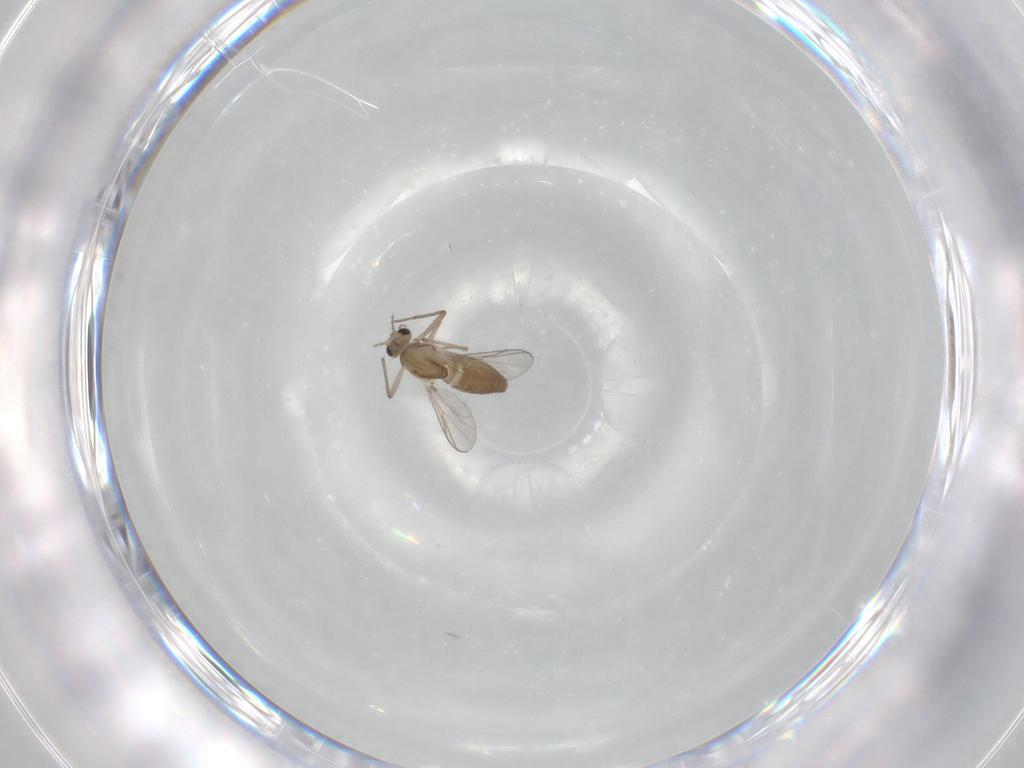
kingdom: Animalia
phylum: Arthropoda
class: Insecta
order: Diptera
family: Chironomidae
